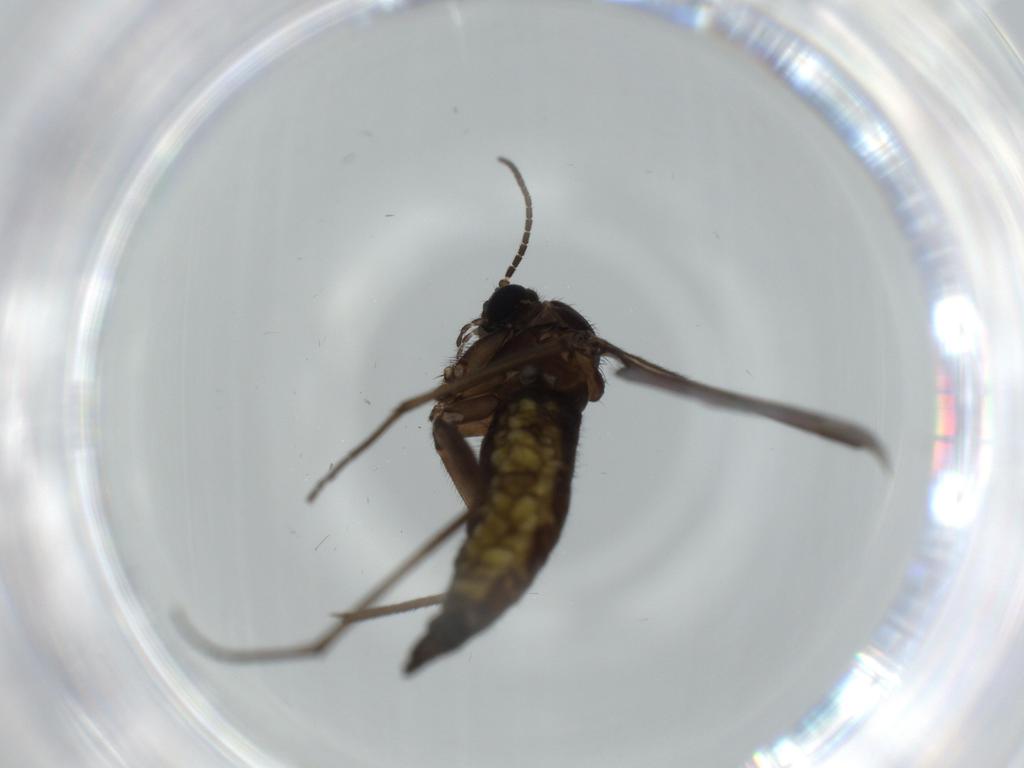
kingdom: Animalia
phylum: Arthropoda
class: Insecta
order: Diptera
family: Sciaridae
